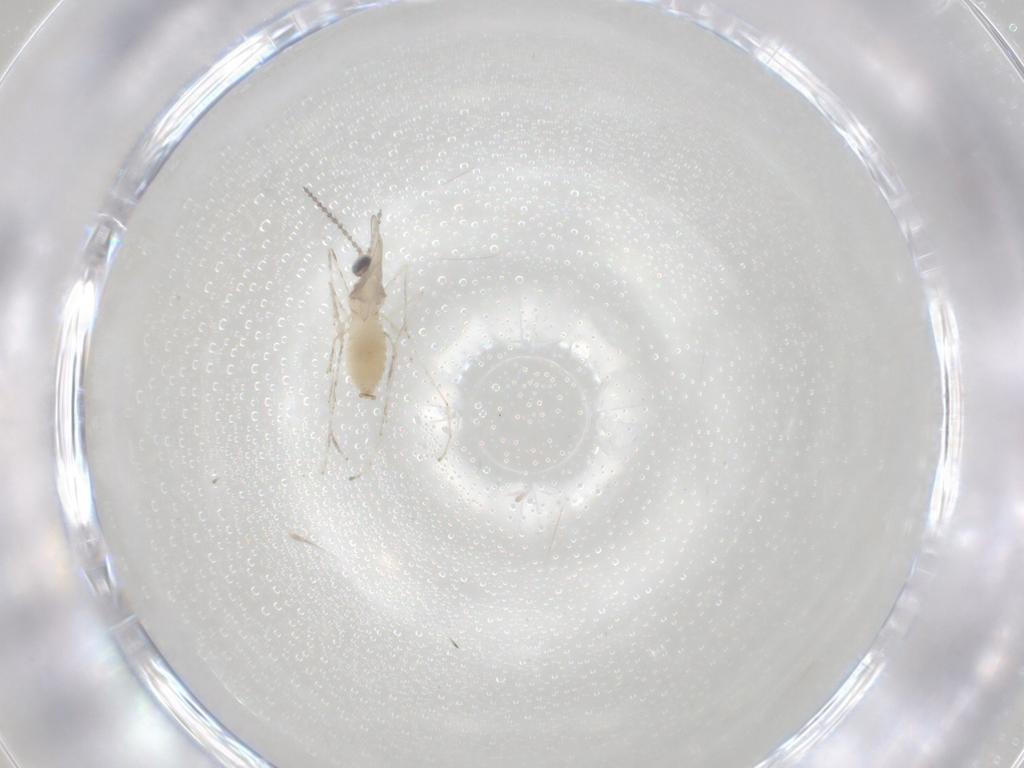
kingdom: Animalia
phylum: Arthropoda
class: Insecta
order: Diptera
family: Cecidomyiidae
